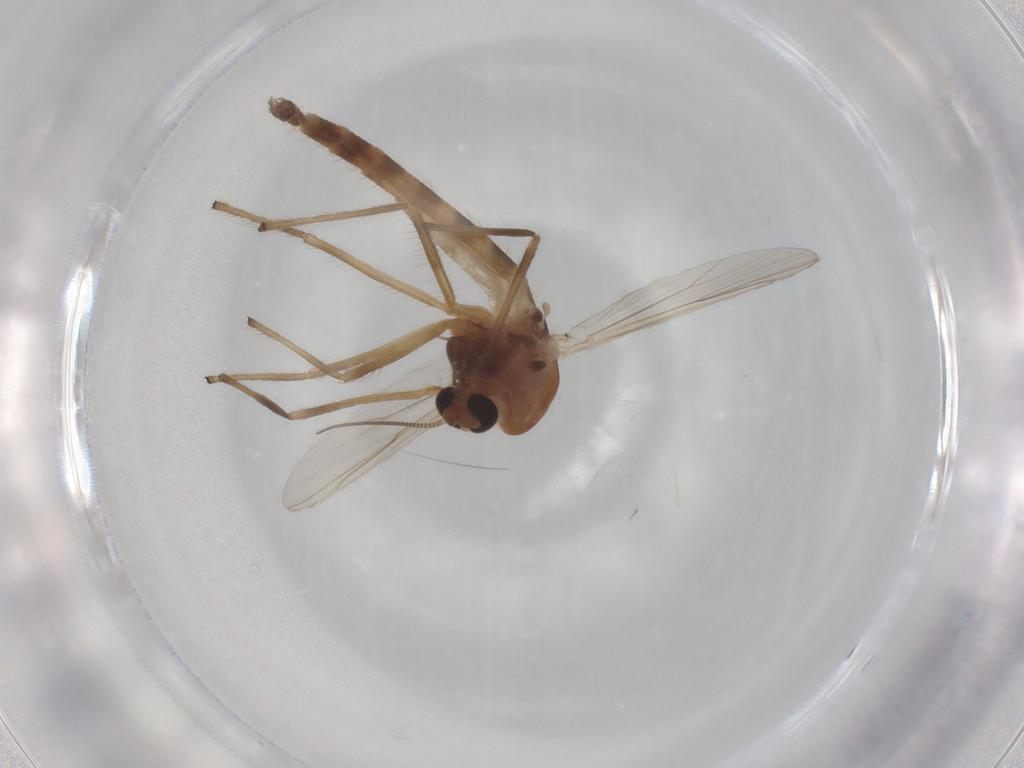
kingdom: Animalia
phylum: Arthropoda
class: Insecta
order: Diptera
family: Chironomidae
